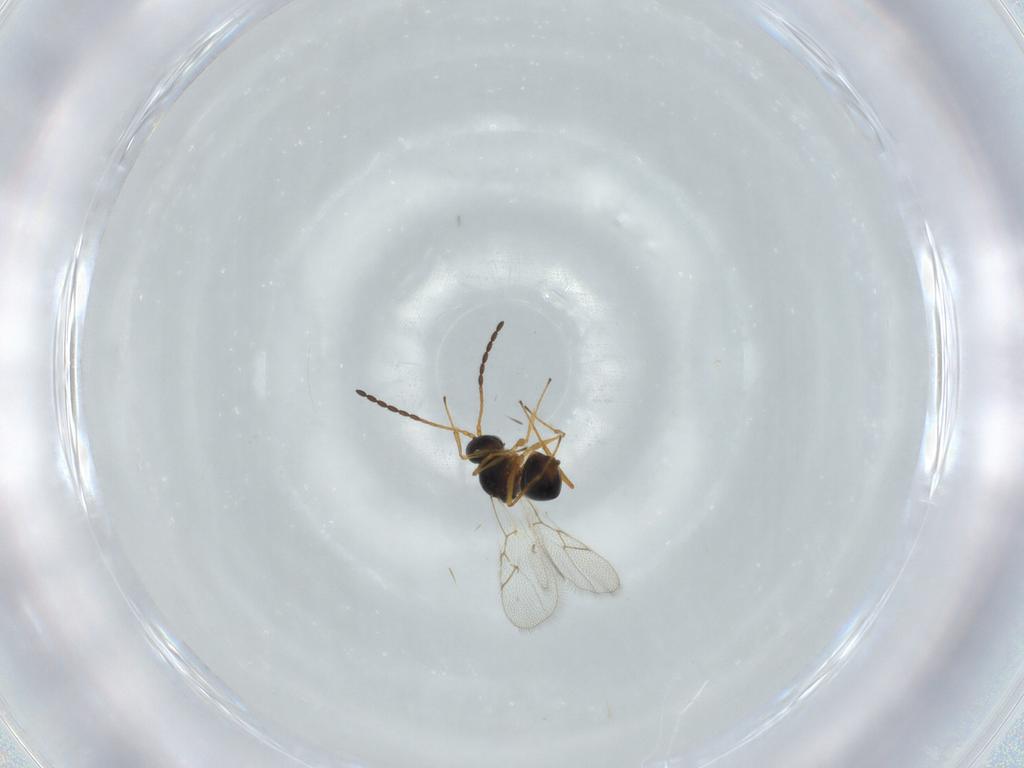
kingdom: Animalia
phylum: Arthropoda
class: Insecta
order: Hymenoptera
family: Figitidae
